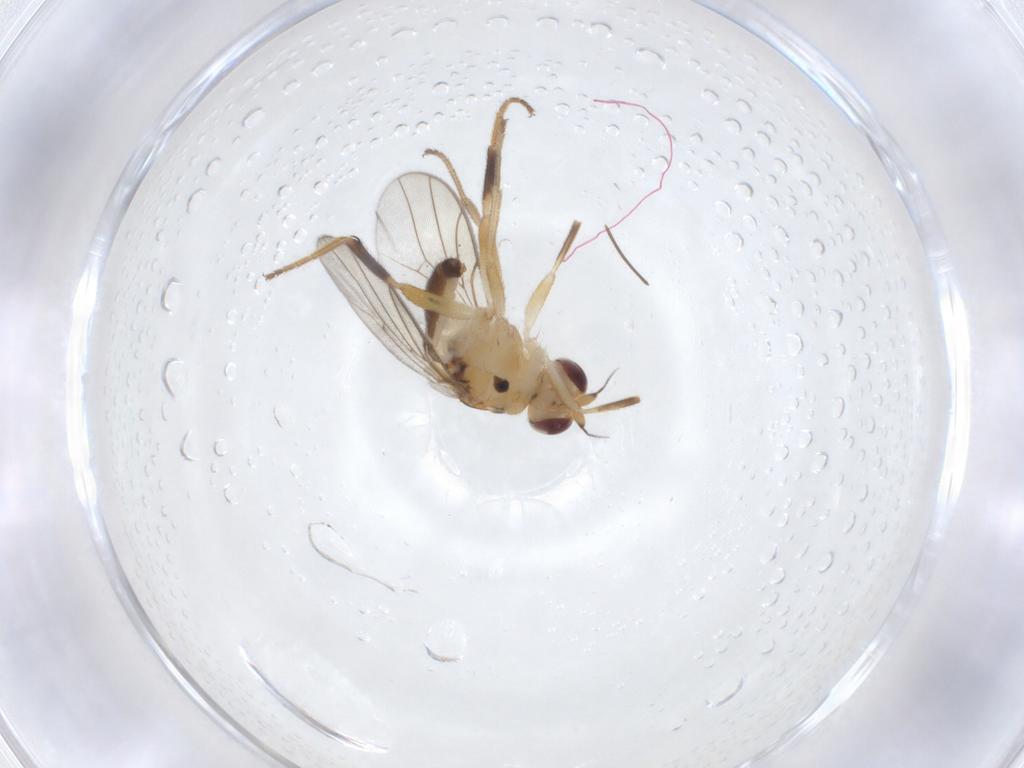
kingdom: Animalia
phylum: Arthropoda
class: Insecta
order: Diptera
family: Chloropidae
